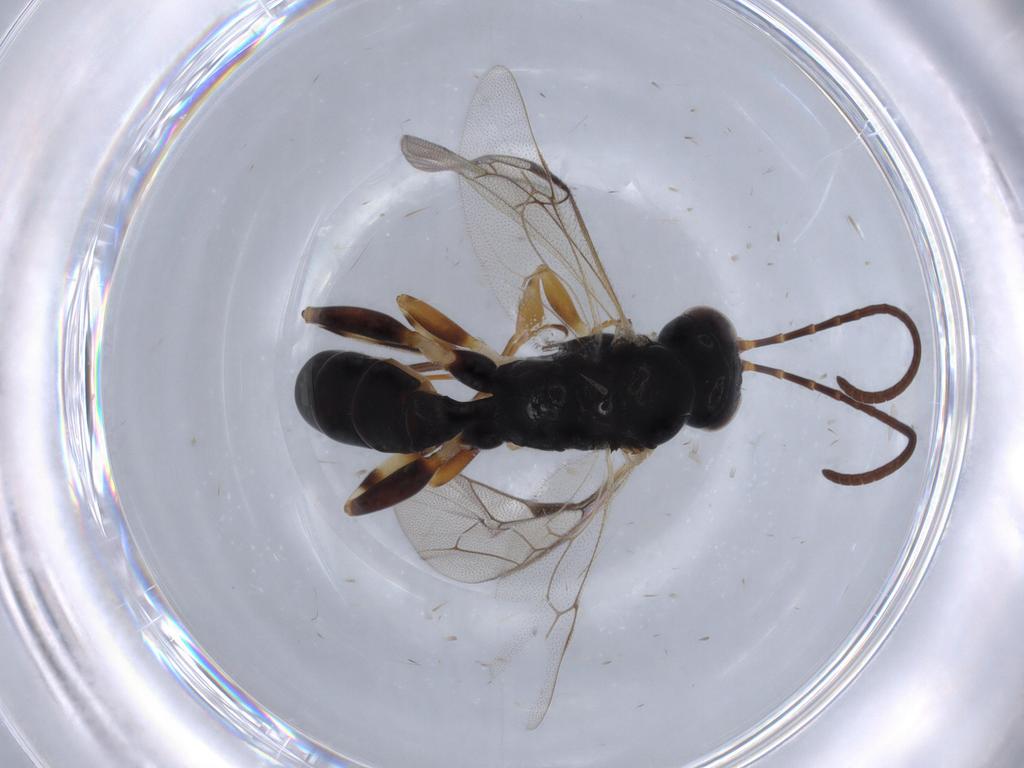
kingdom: Animalia
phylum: Arthropoda
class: Insecta
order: Hymenoptera
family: Ichneumonidae
